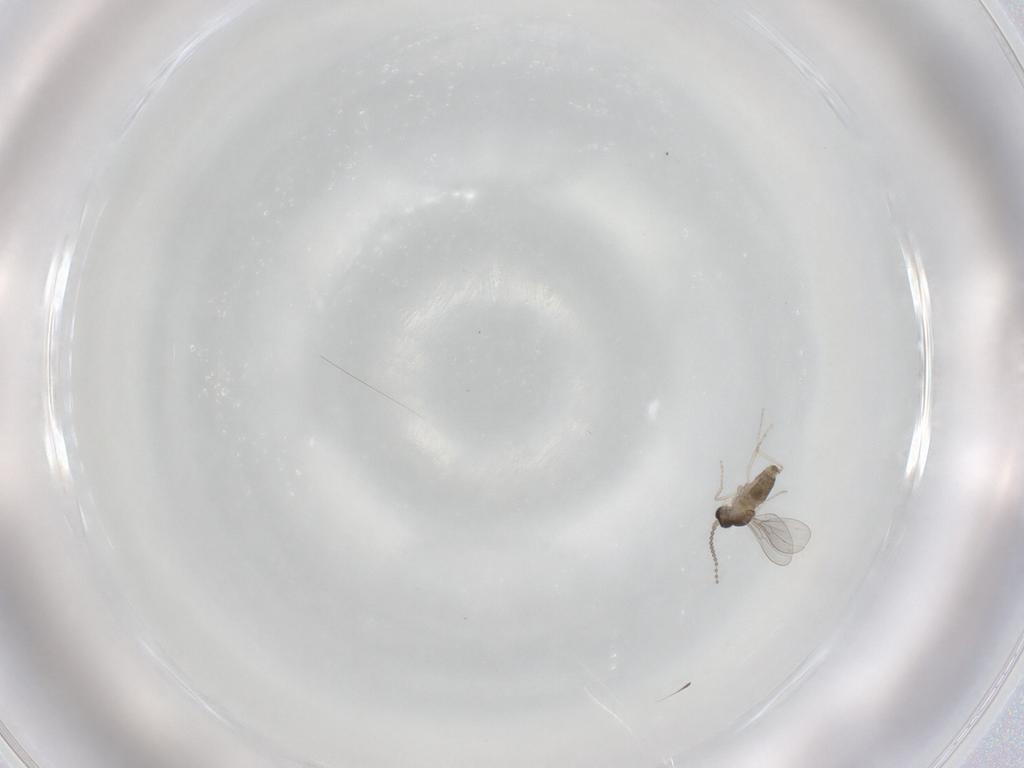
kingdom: Animalia
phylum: Arthropoda
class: Insecta
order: Diptera
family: Cecidomyiidae
